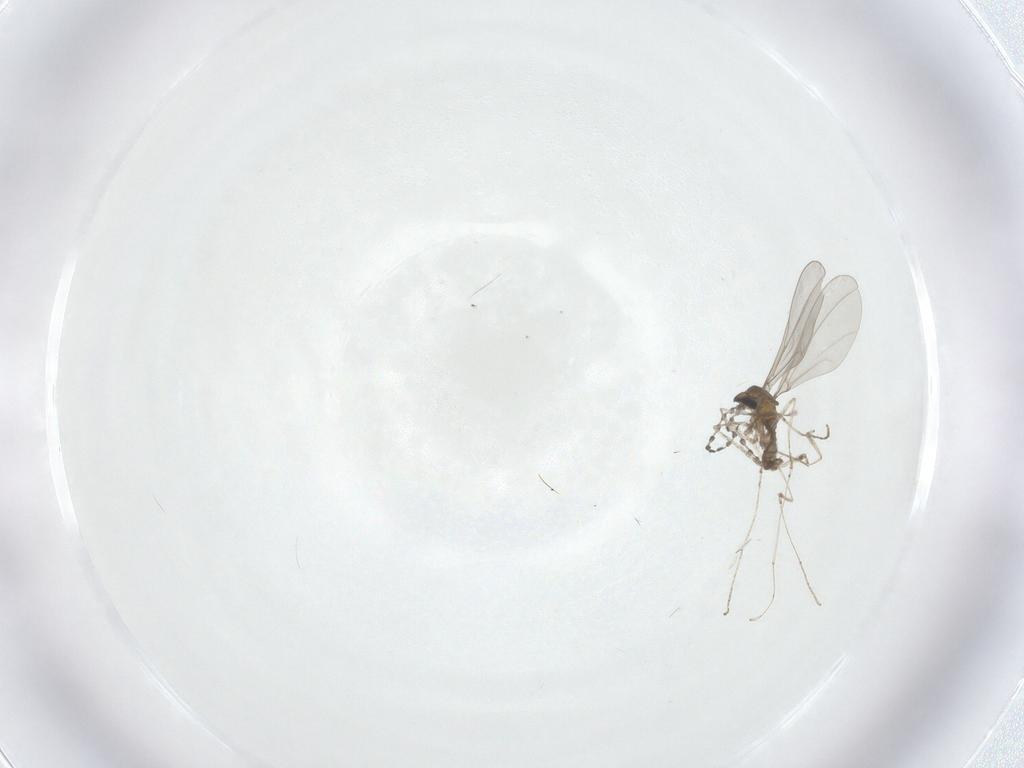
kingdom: Animalia
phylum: Arthropoda
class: Insecta
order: Diptera
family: Cecidomyiidae
